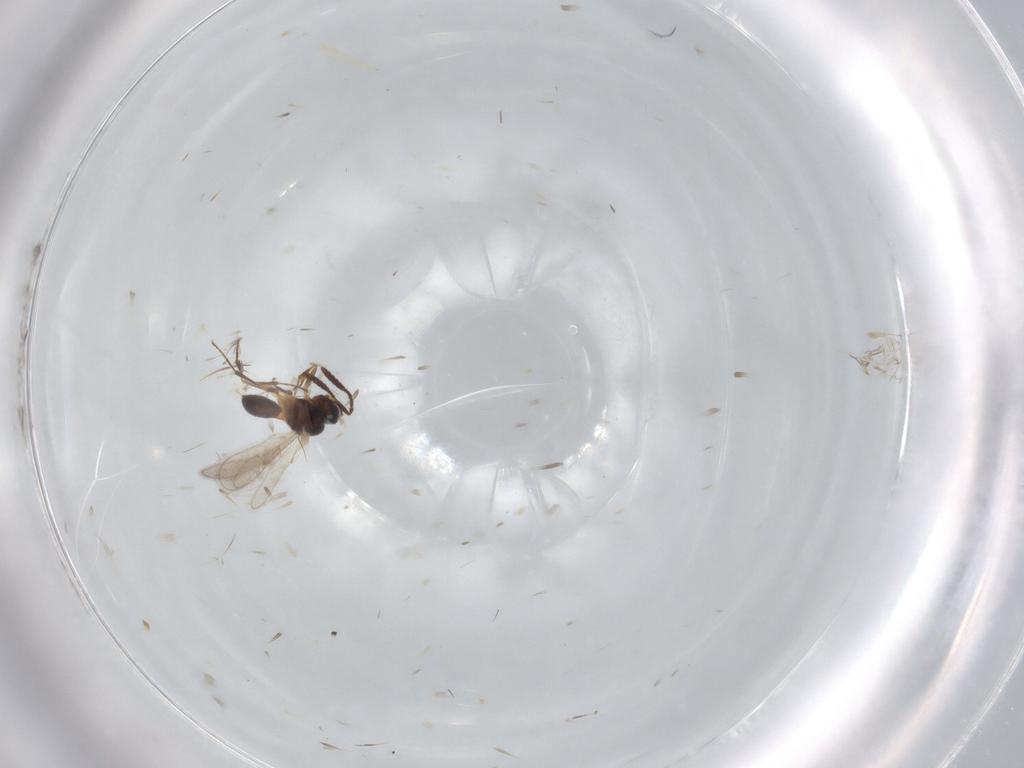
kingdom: Animalia
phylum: Arthropoda
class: Insecta
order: Hymenoptera
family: Scelionidae
